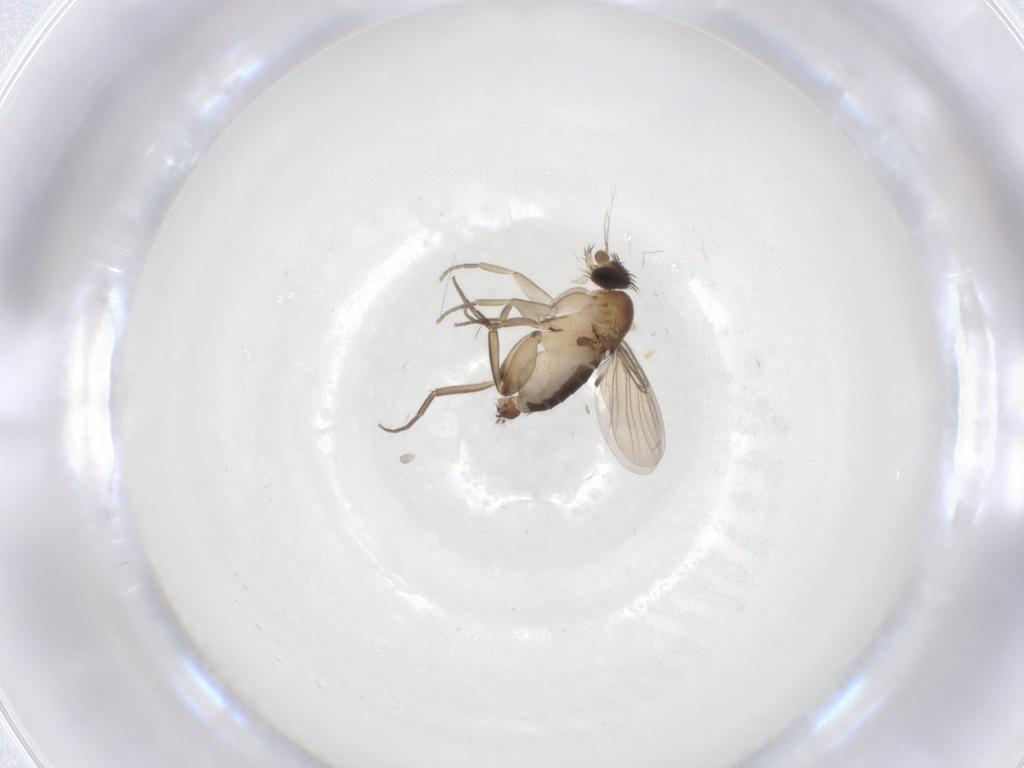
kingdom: Animalia
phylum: Arthropoda
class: Insecta
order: Diptera
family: Phoridae
